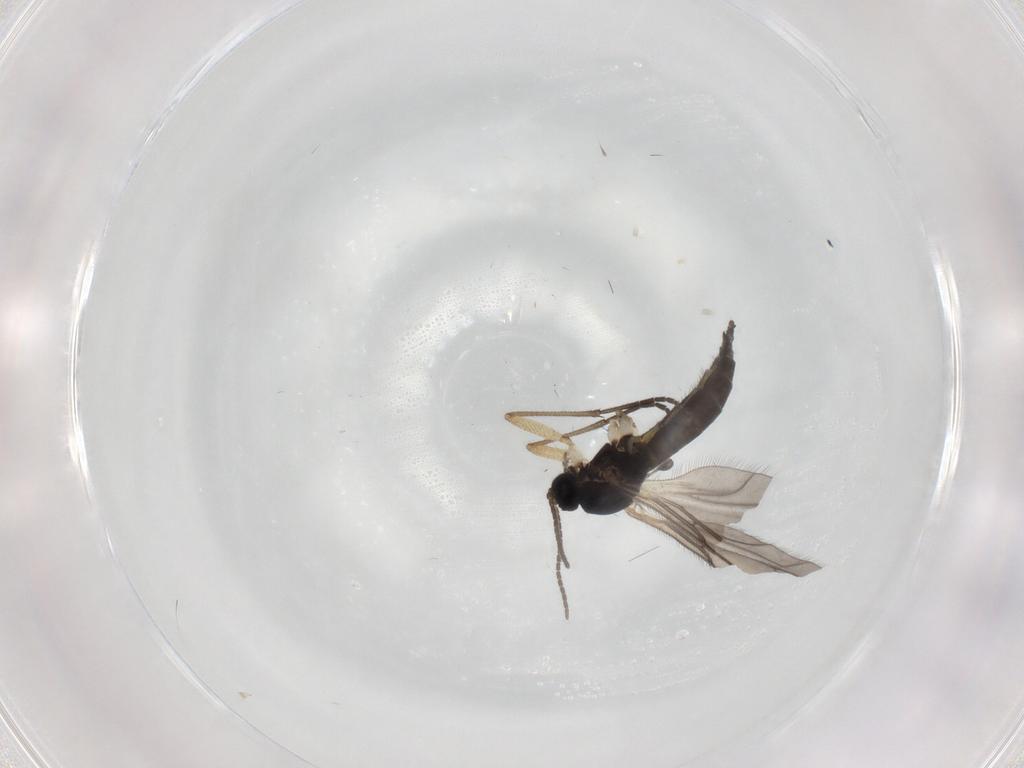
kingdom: Animalia
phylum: Arthropoda
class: Insecta
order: Diptera
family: Sciaridae
